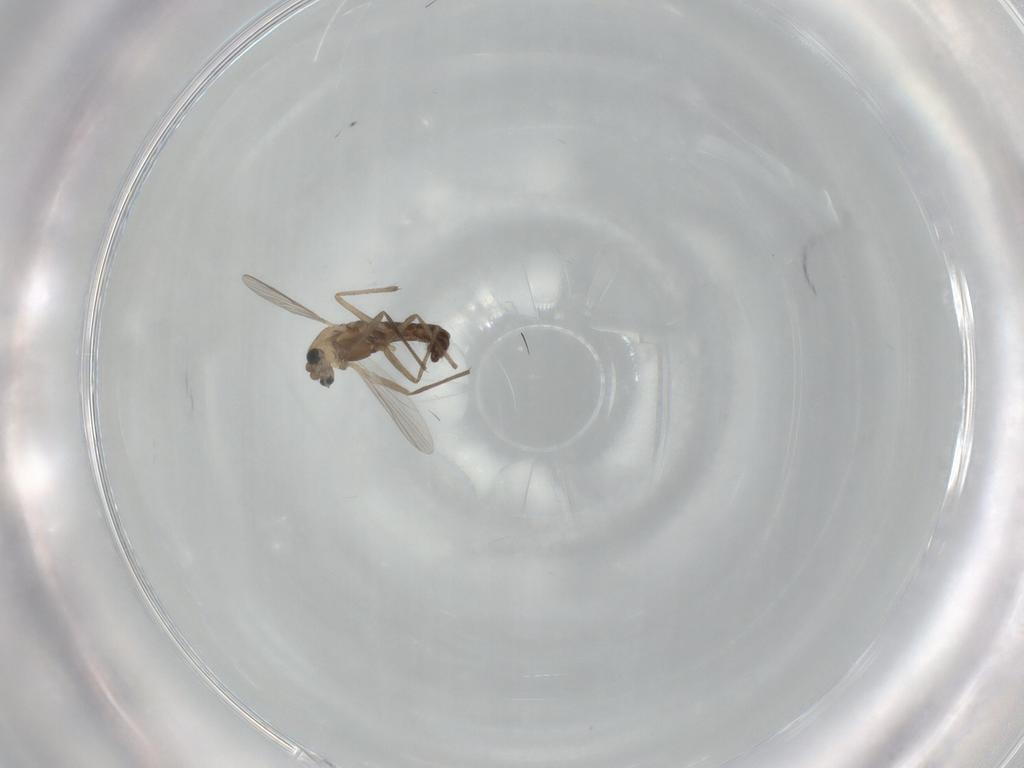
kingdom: Animalia
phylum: Arthropoda
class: Insecta
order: Diptera
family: Chironomidae
